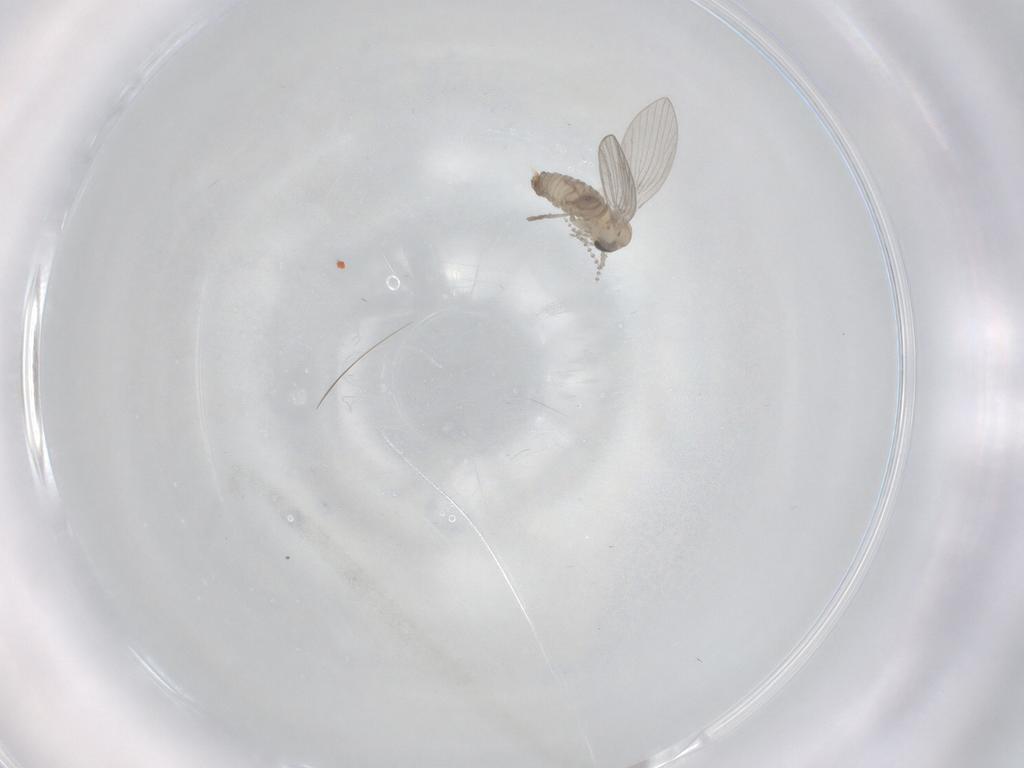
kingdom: Animalia
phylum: Arthropoda
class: Insecta
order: Diptera
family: Psychodidae
